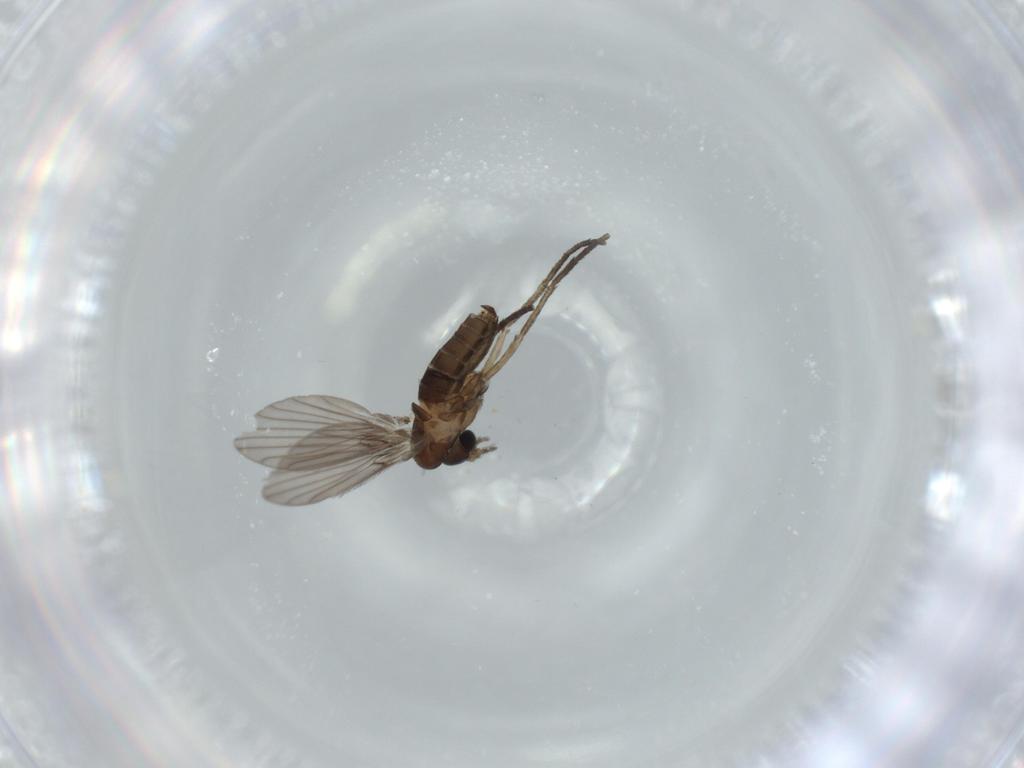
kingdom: Animalia
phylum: Arthropoda
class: Insecta
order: Diptera
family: Psychodidae
